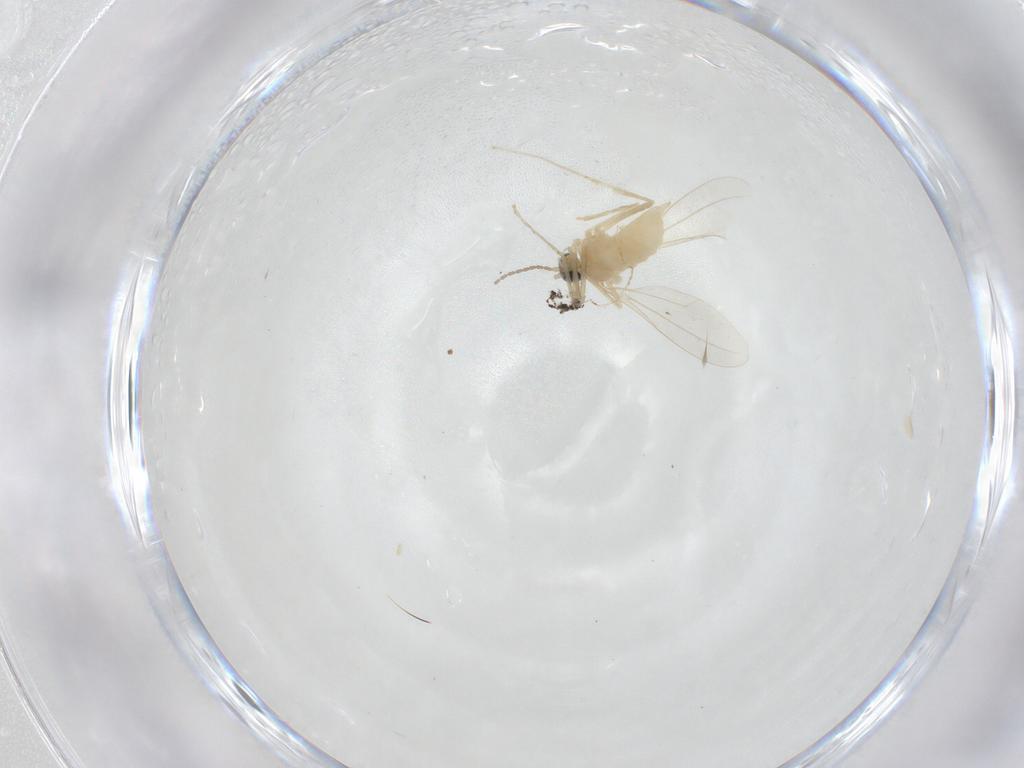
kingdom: Animalia
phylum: Arthropoda
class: Insecta
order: Diptera
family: Cecidomyiidae
